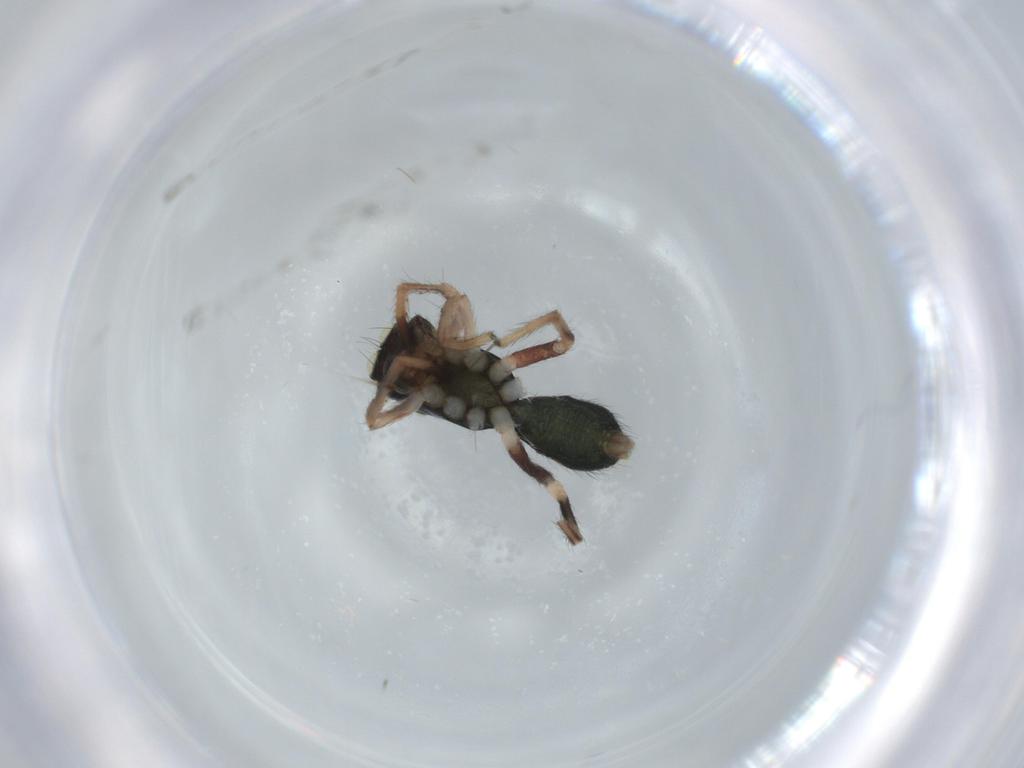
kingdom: Animalia
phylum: Arthropoda
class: Arachnida
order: Araneae
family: Salticidae
